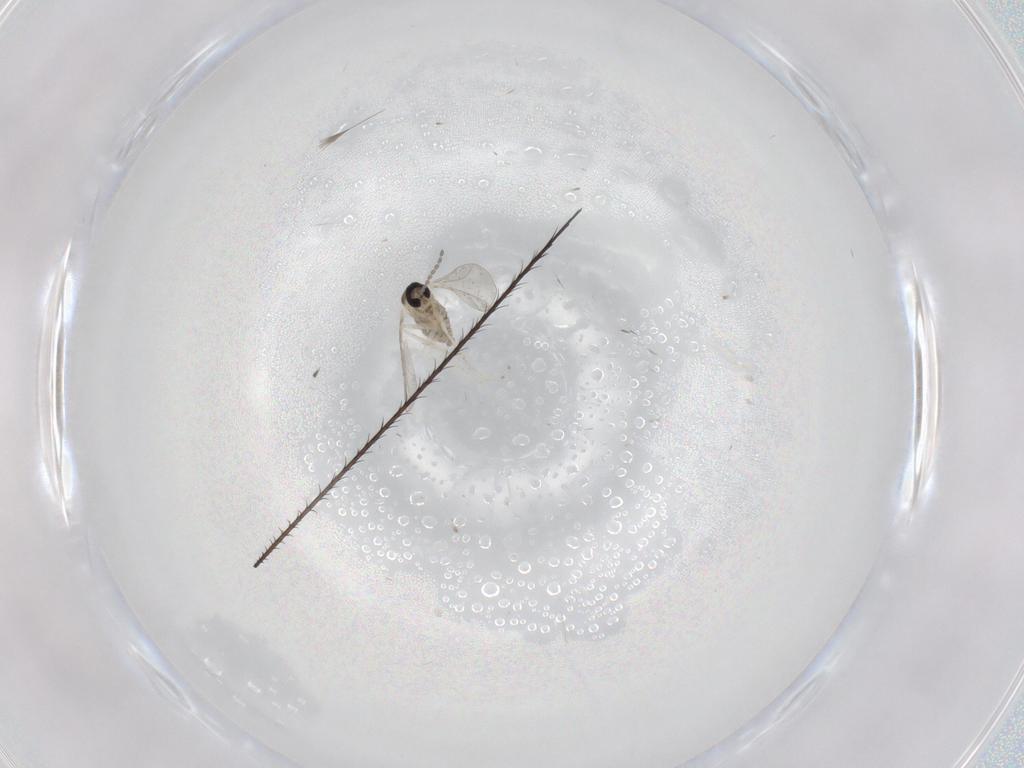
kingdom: Animalia
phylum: Arthropoda
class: Insecta
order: Diptera
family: Cecidomyiidae
